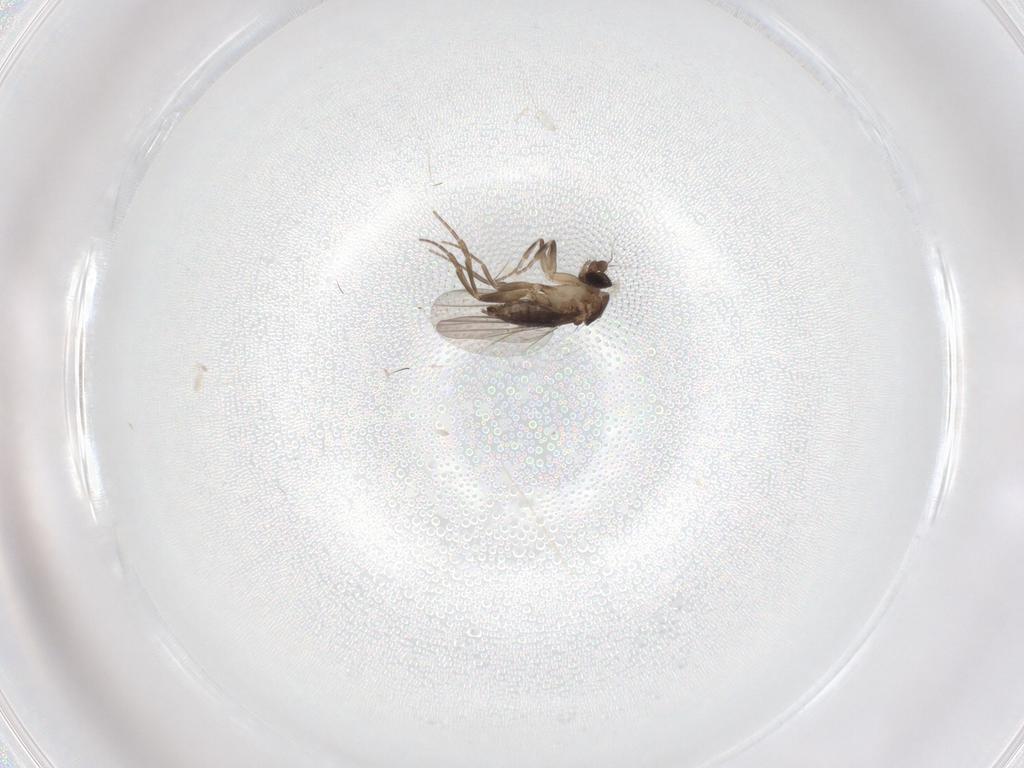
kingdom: Animalia
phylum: Arthropoda
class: Insecta
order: Diptera
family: Phoridae
